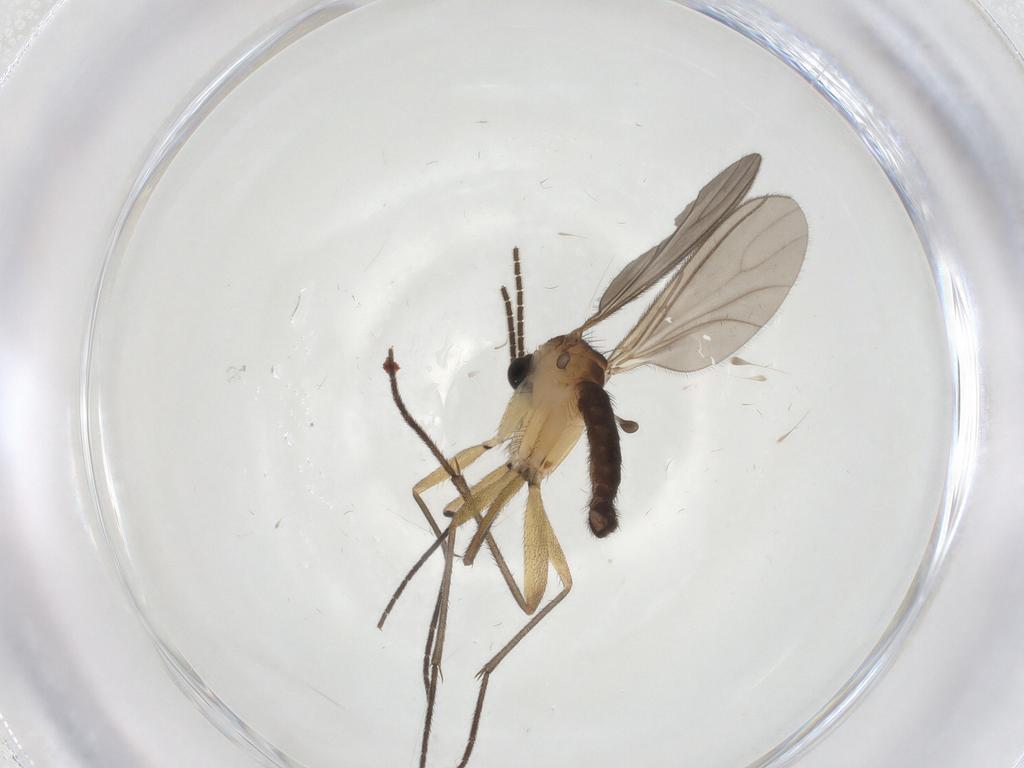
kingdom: Animalia
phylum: Arthropoda
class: Insecta
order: Diptera
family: Sciaridae
